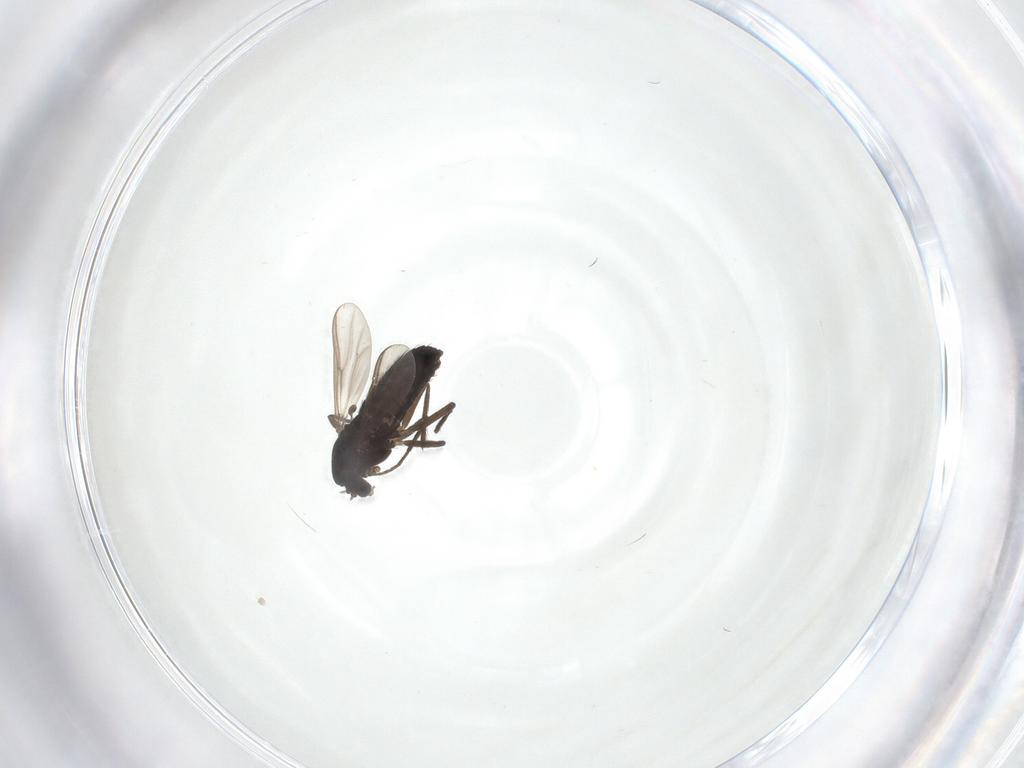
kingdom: Animalia
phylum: Arthropoda
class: Insecta
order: Diptera
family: Chironomidae
